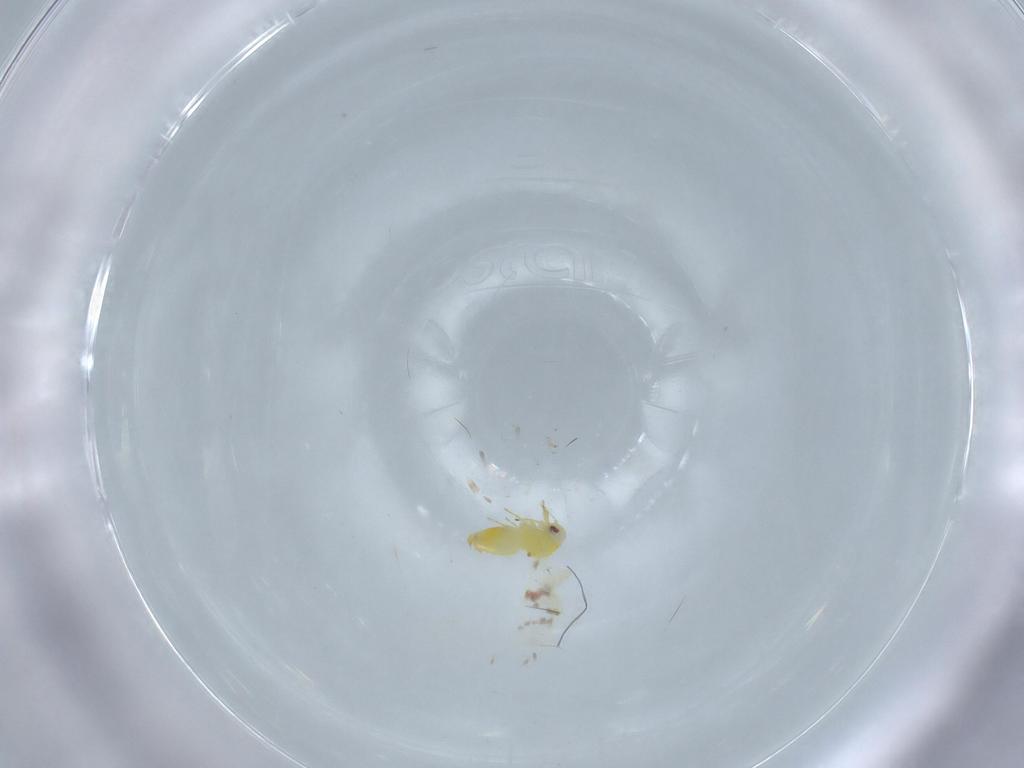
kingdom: Animalia
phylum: Arthropoda
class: Insecta
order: Hemiptera
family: Aleyrodidae
